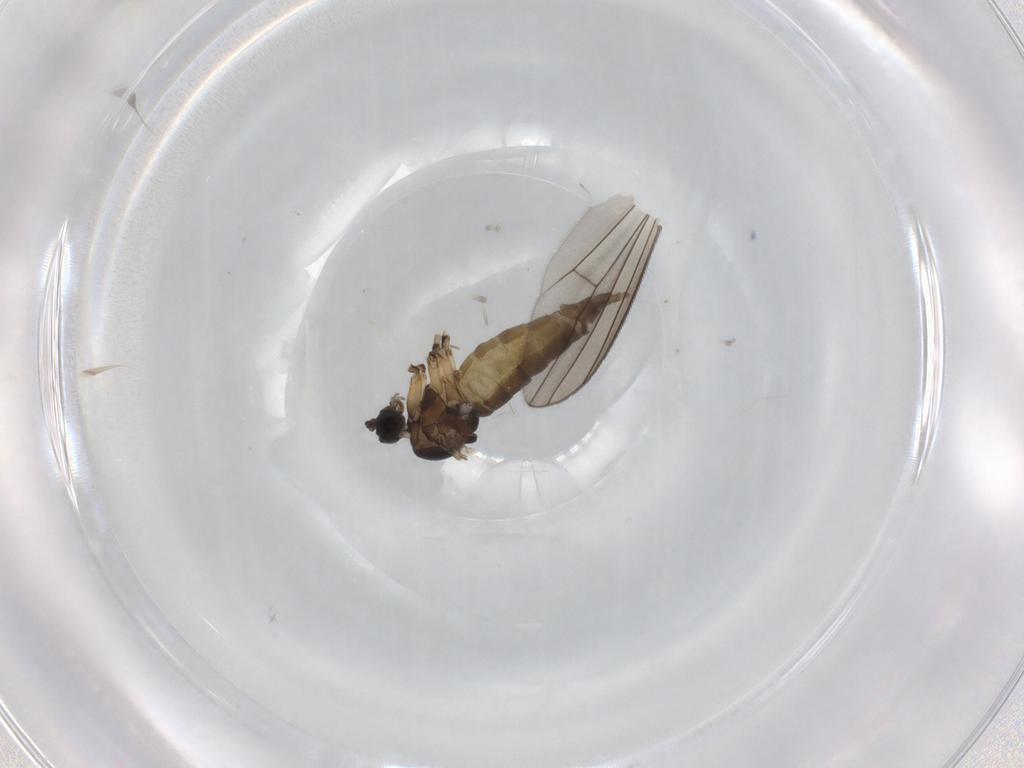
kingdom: Animalia
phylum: Arthropoda
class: Insecta
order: Diptera
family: Sciaridae
